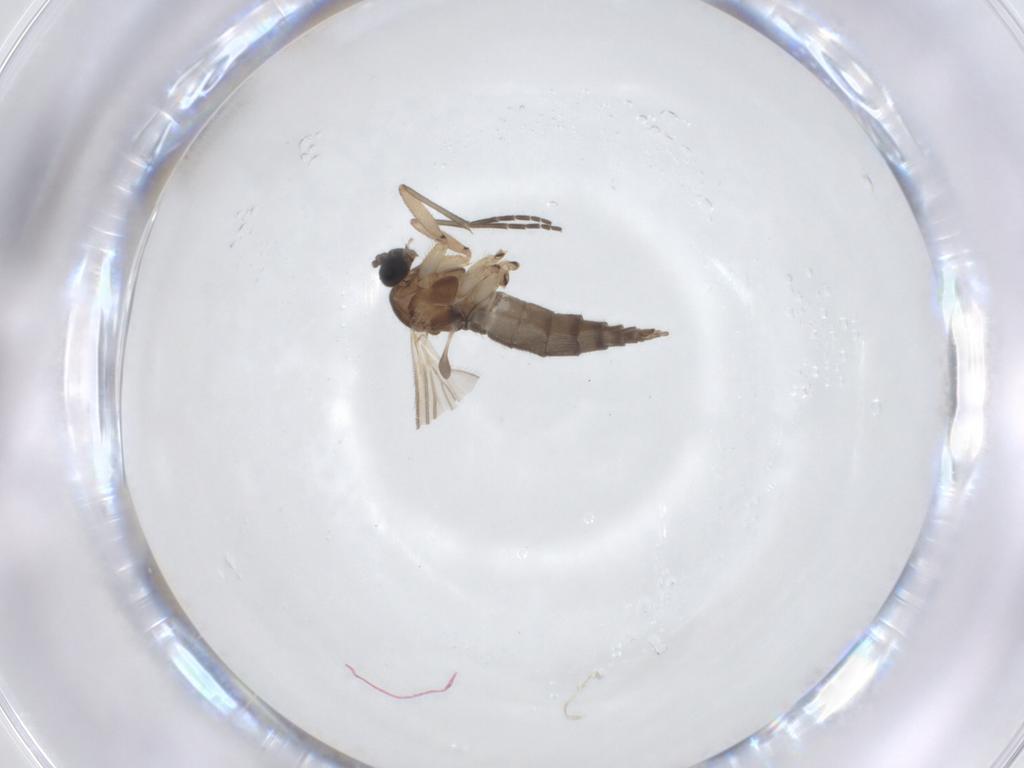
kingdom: Animalia
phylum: Arthropoda
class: Insecta
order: Diptera
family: Sciaridae
